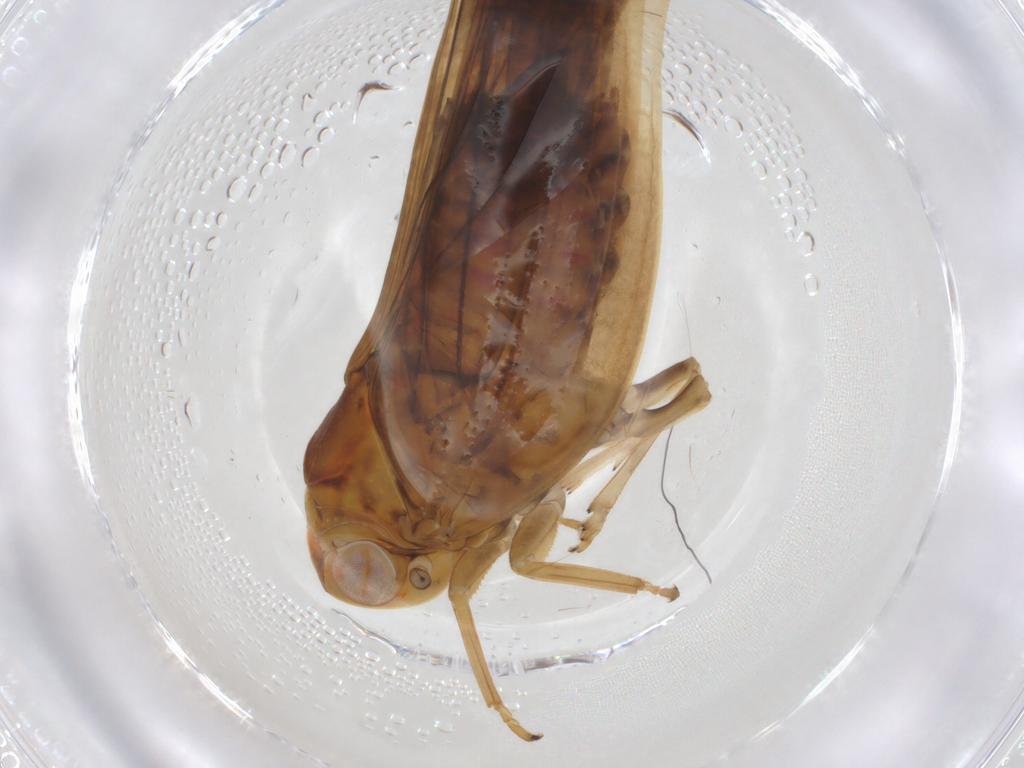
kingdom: Animalia
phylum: Arthropoda
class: Insecta
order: Hemiptera
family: Nogodinidae
